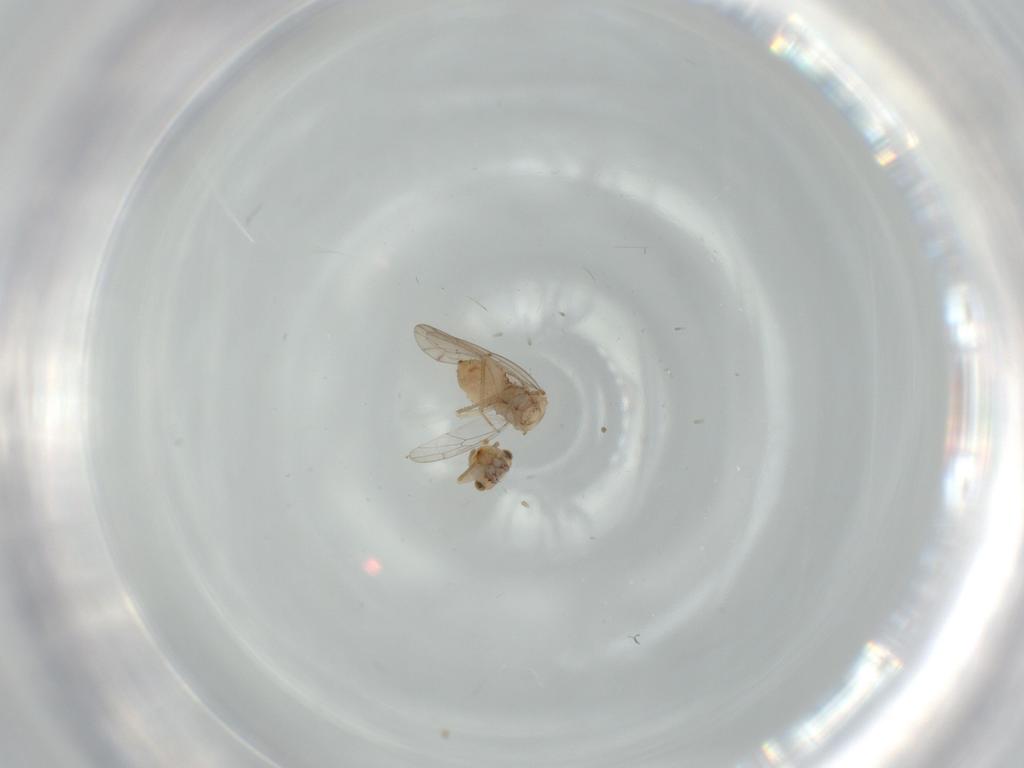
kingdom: Animalia
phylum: Arthropoda
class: Insecta
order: Psocodea
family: Ectopsocidae
